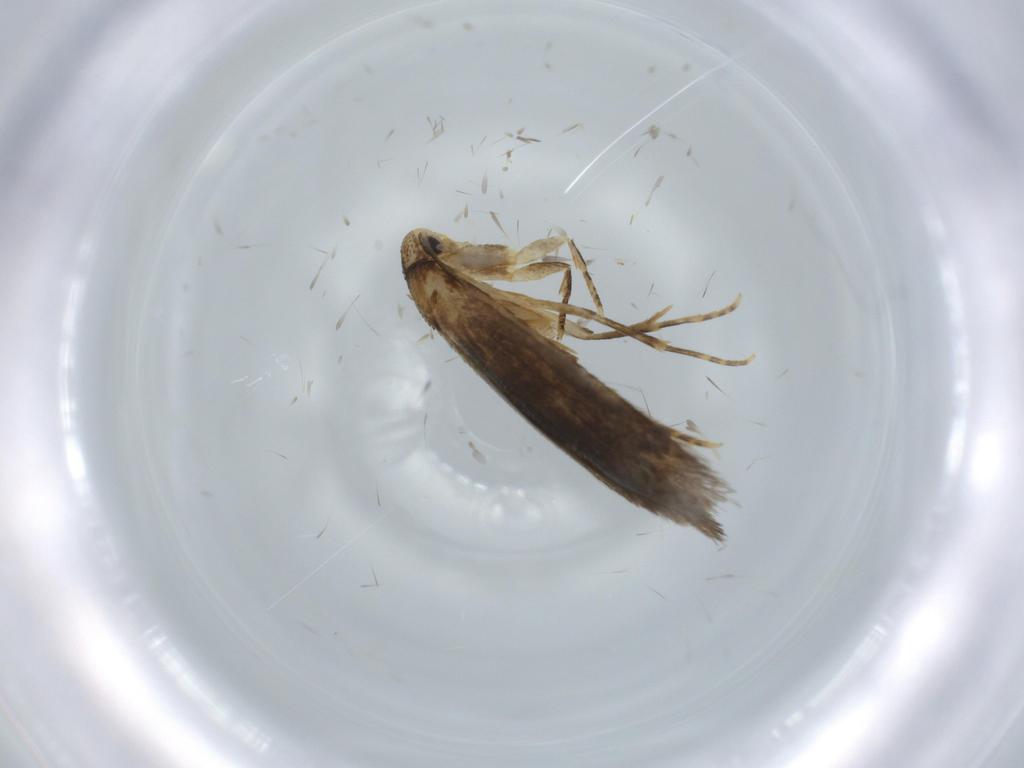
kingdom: Animalia
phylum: Arthropoda
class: Insecta
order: Lepidoptera
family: Tineidae
